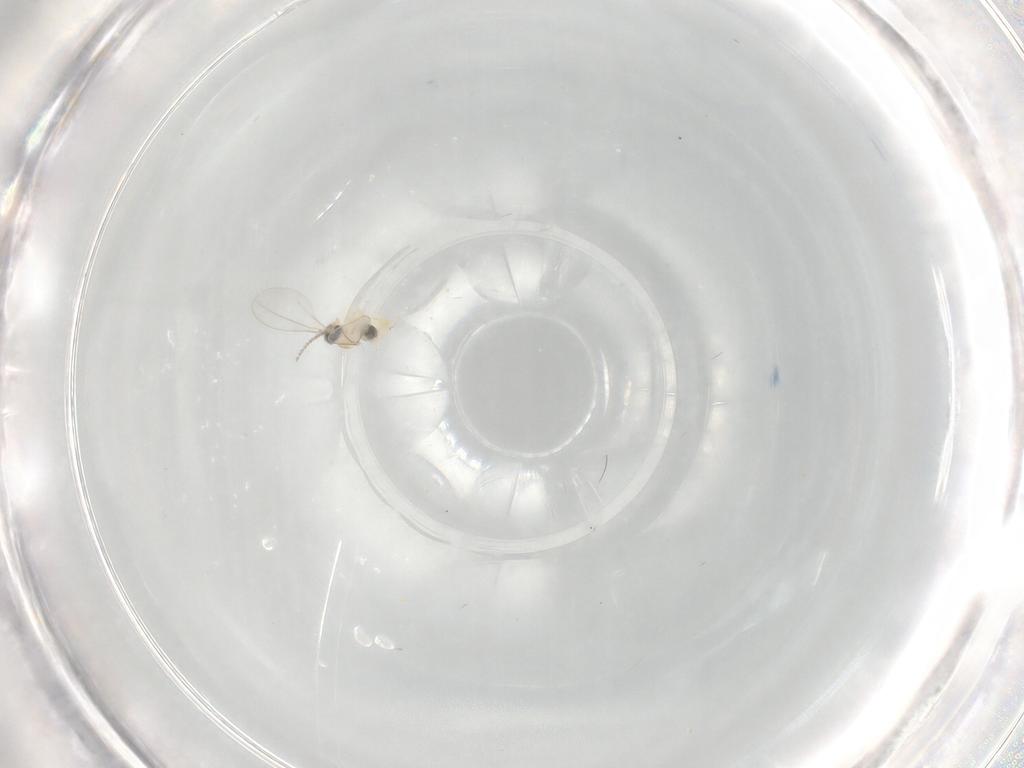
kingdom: Animalia
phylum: Arthropoda
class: Insecta
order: Diptera
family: Cecidomyiidae
